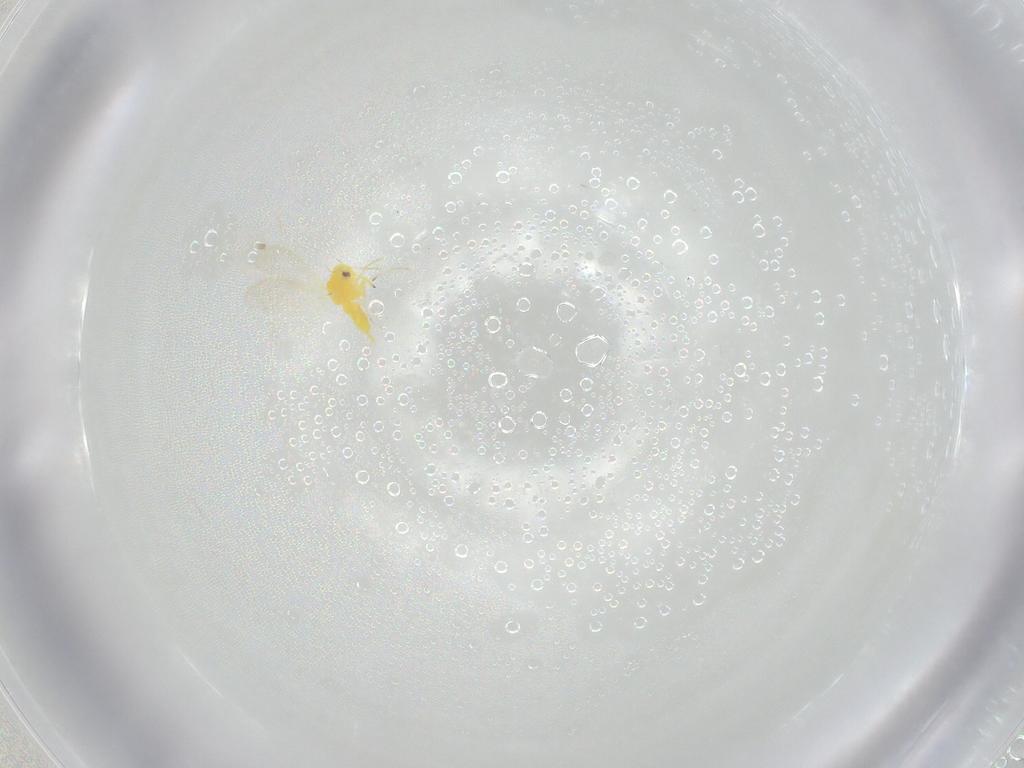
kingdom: Animalia
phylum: Arthropoda
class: Insecta
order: Hemiptera
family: Aleyrodidae
